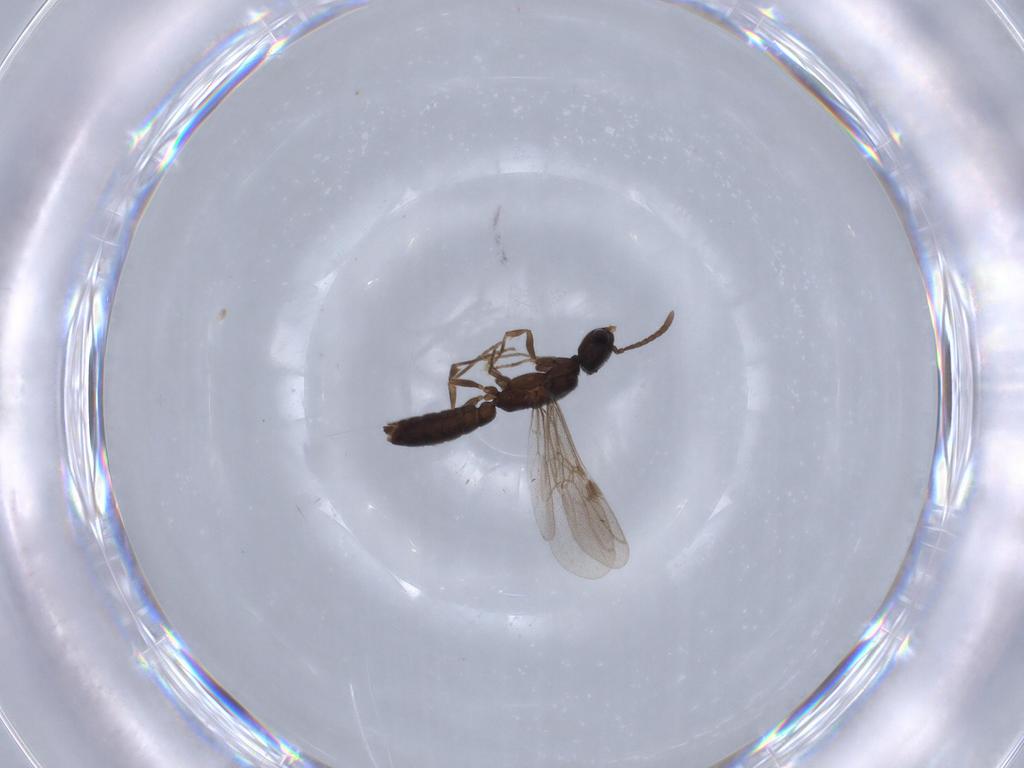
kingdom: Animalia
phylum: Arthropoda
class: Insecta
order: Hymenoptera
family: Formicidae
